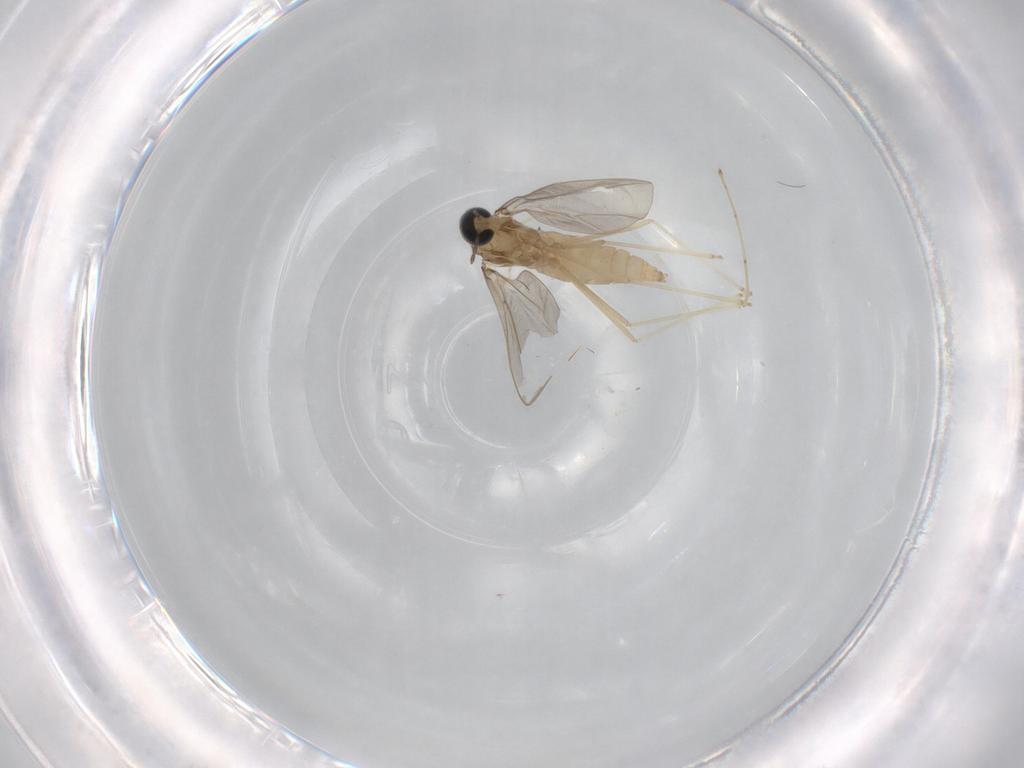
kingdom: Animalia
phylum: Arthropoda
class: Insecta
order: Diptera
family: Cecidomyiidae
